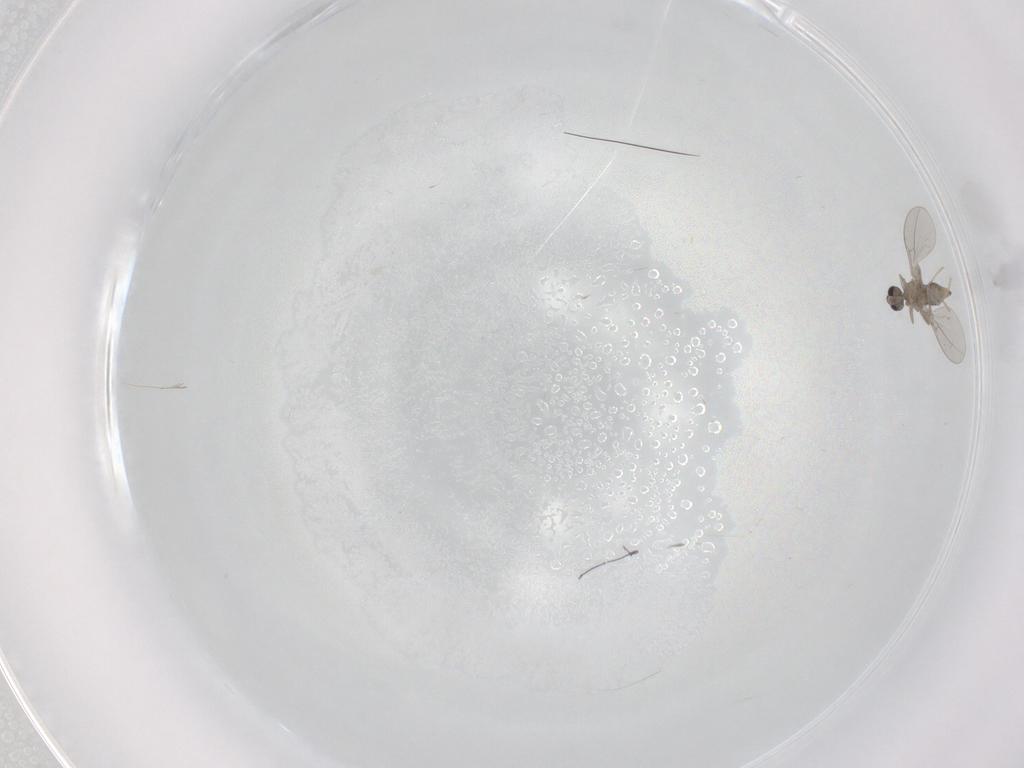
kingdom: Animalia
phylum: Arthropoda
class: Insecta
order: Diptera
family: Cecidomyiidae
